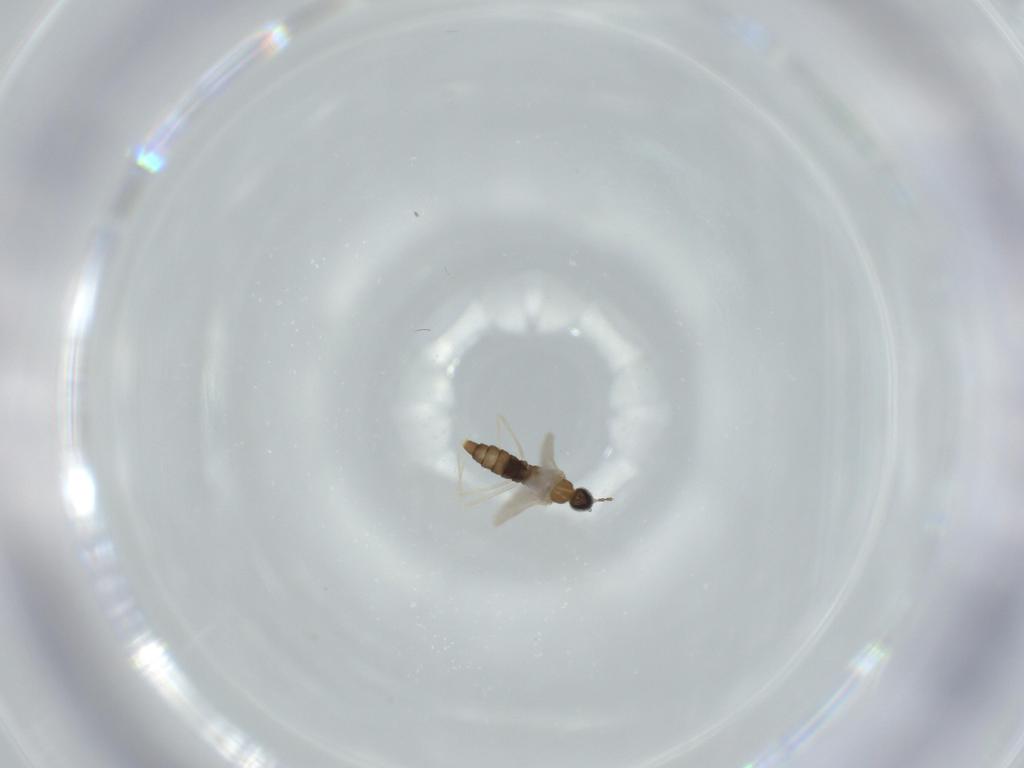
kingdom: Animalia
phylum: Arthropoda
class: Insecta
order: Diptera
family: Cecidomyiidae
